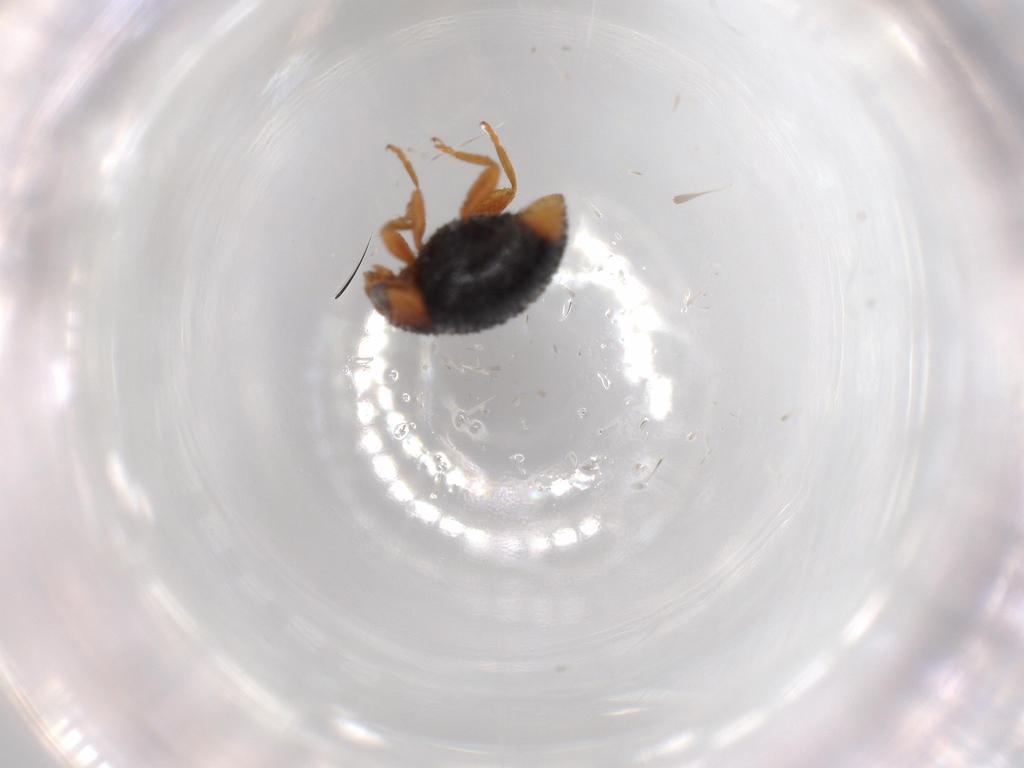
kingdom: Animalia
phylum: Arthropoda
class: Insecta
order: Coleoptera
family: Coccinellidae
